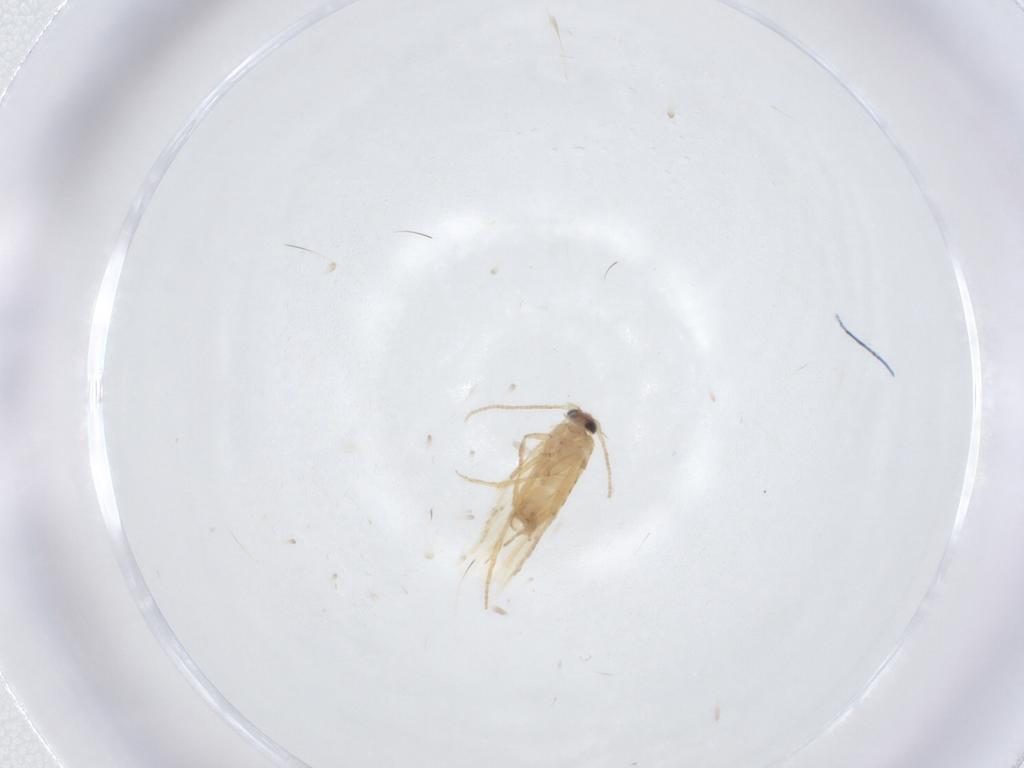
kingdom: Animalia
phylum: Arthropoda
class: Insecta
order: Lepidoptera
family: Nepticulidae
